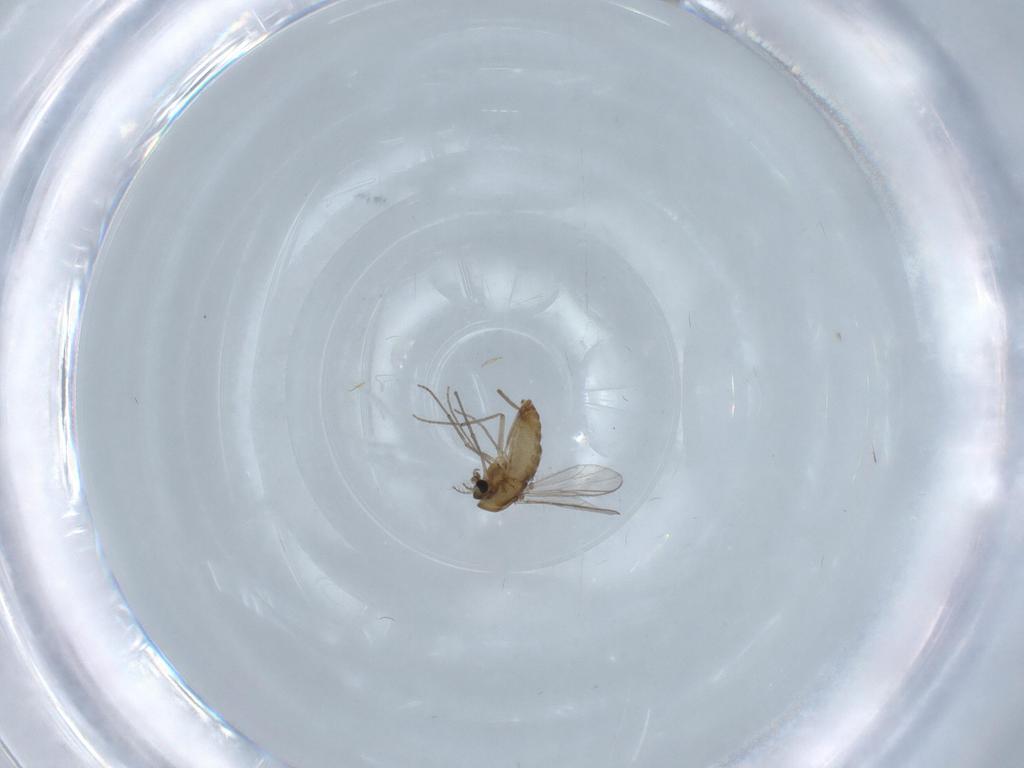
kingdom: Animalia
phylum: Arthropoda
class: Insecta
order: Diptera
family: Chironomidae
